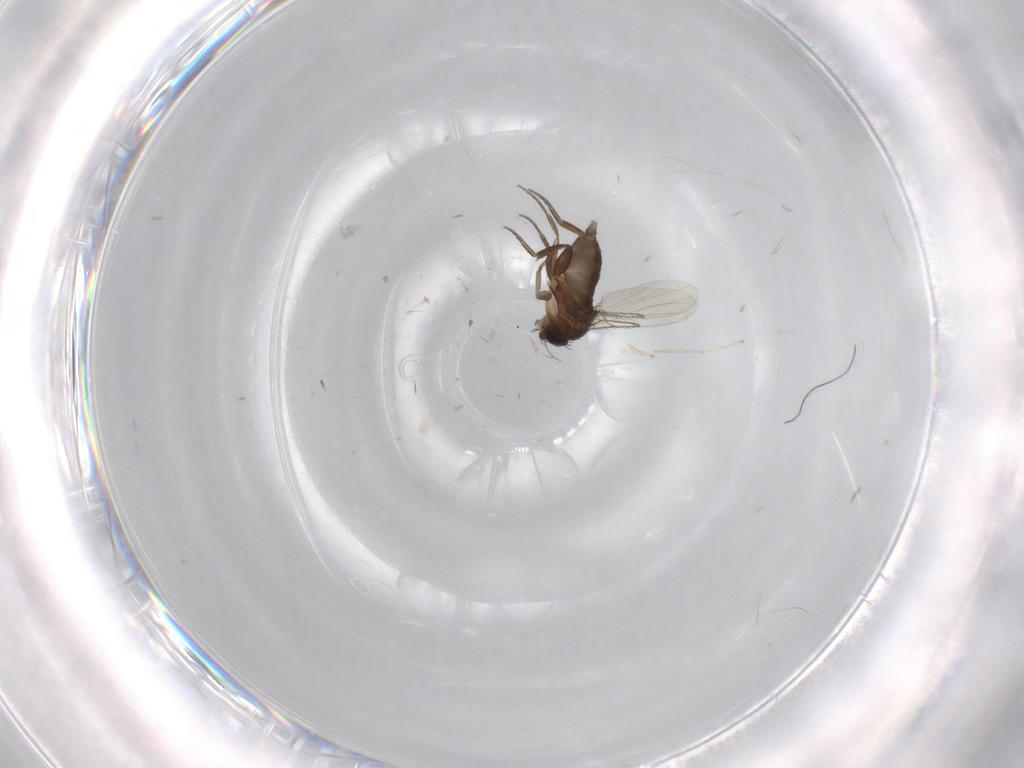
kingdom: Animalia
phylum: Arthropoda
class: Insecta
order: Diptera
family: Phoridae
